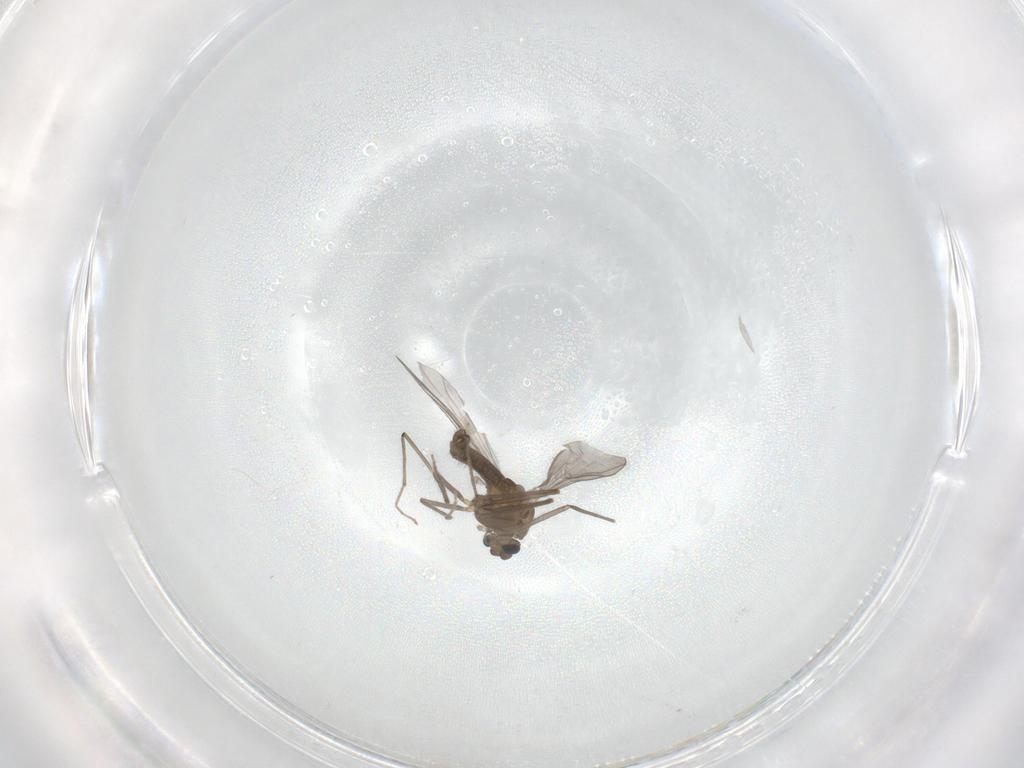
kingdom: Animalia
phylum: Arthropoda
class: Insecta
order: Diptera
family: Chironomidae
